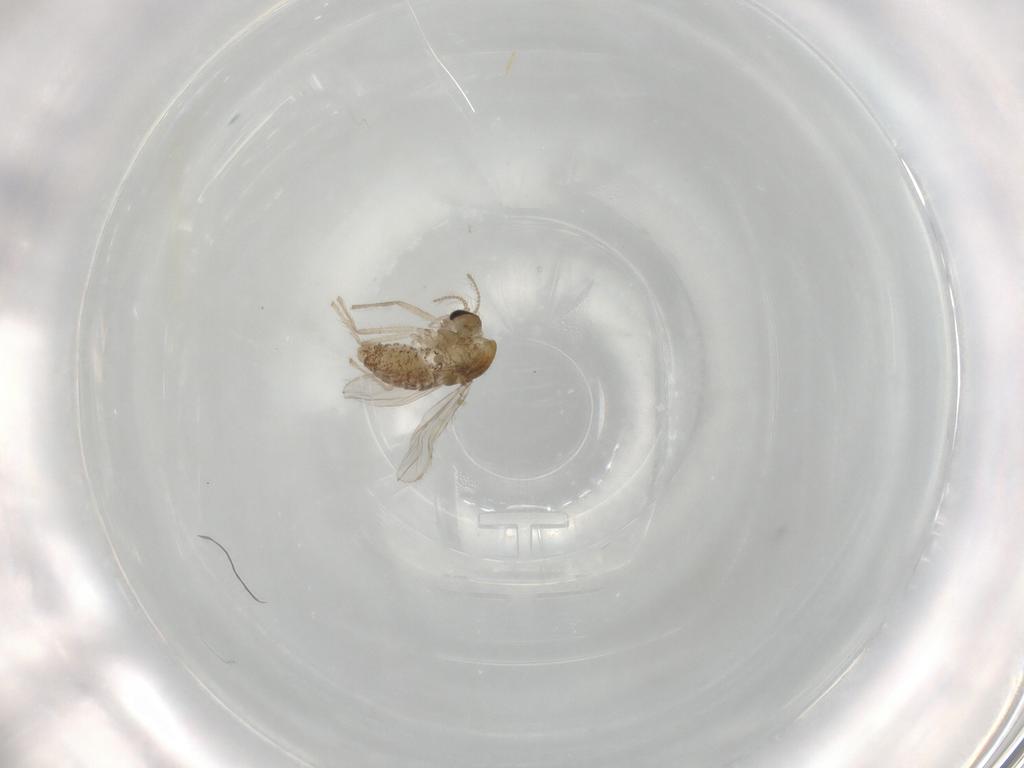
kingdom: Animalia
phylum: Arthropoda
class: Insecta
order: Diptera
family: Chironomidae
